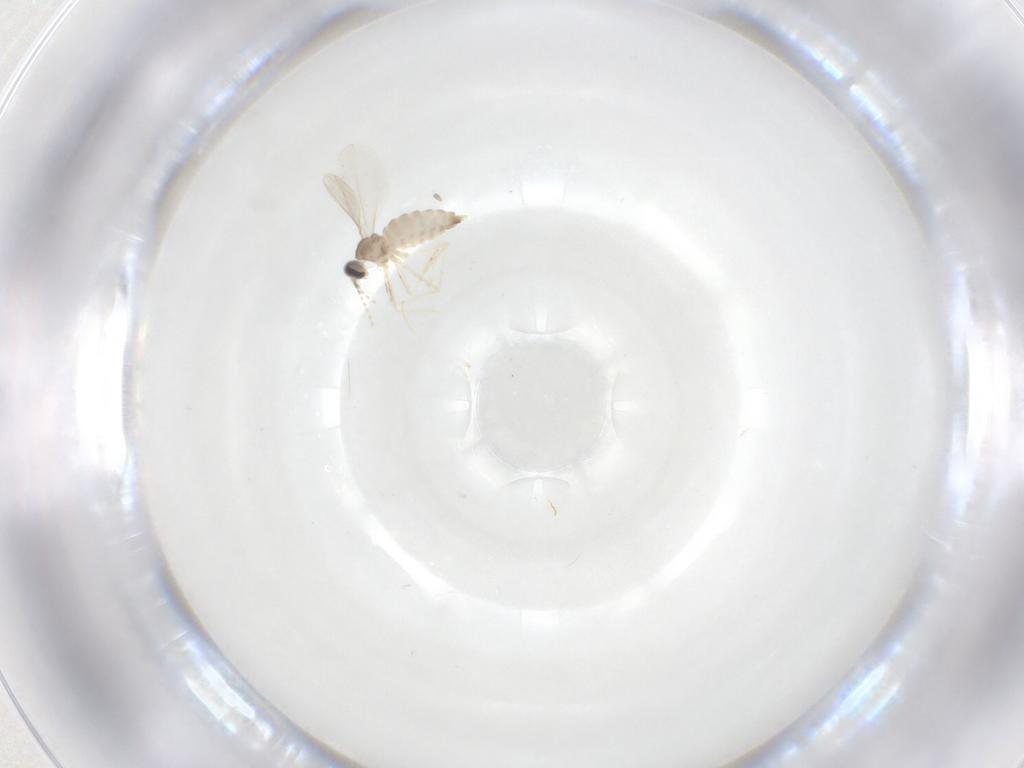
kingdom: Animalia
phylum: Arthropoda
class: Insecta
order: Diptera
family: Cecidomyiidae
